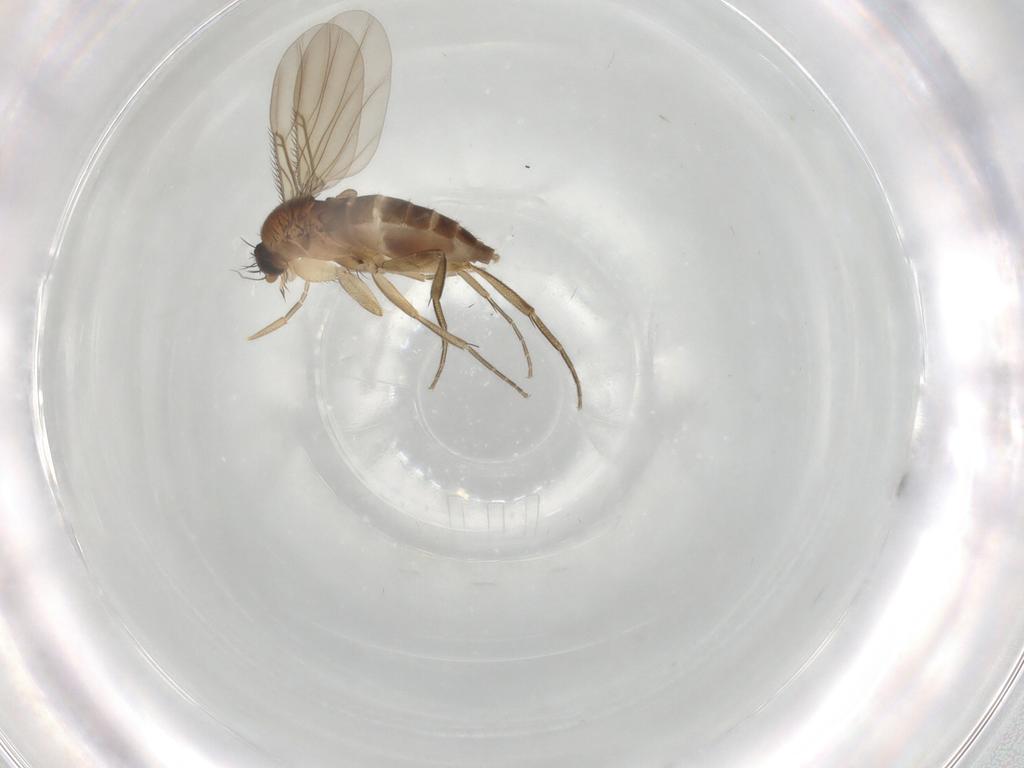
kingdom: Animalia
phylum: Arthropoda
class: Insecta
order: Diptera
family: Phoridae
